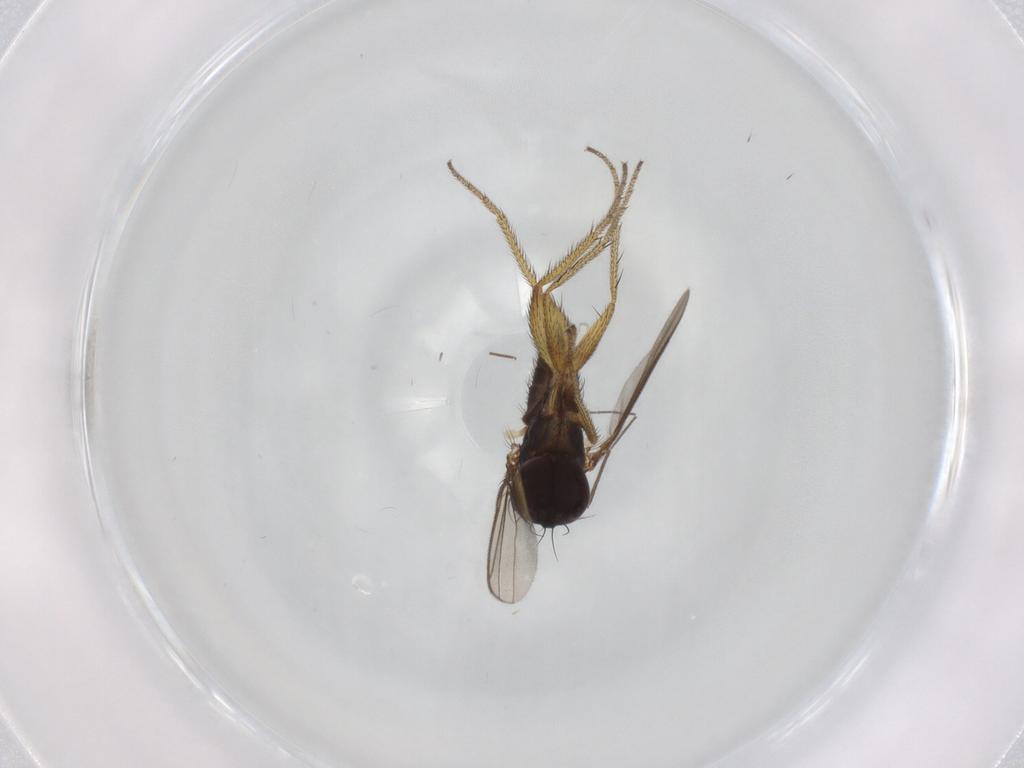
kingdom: Animalia
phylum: Arthropoda
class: Insecta
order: Diptera
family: Chironomidae
